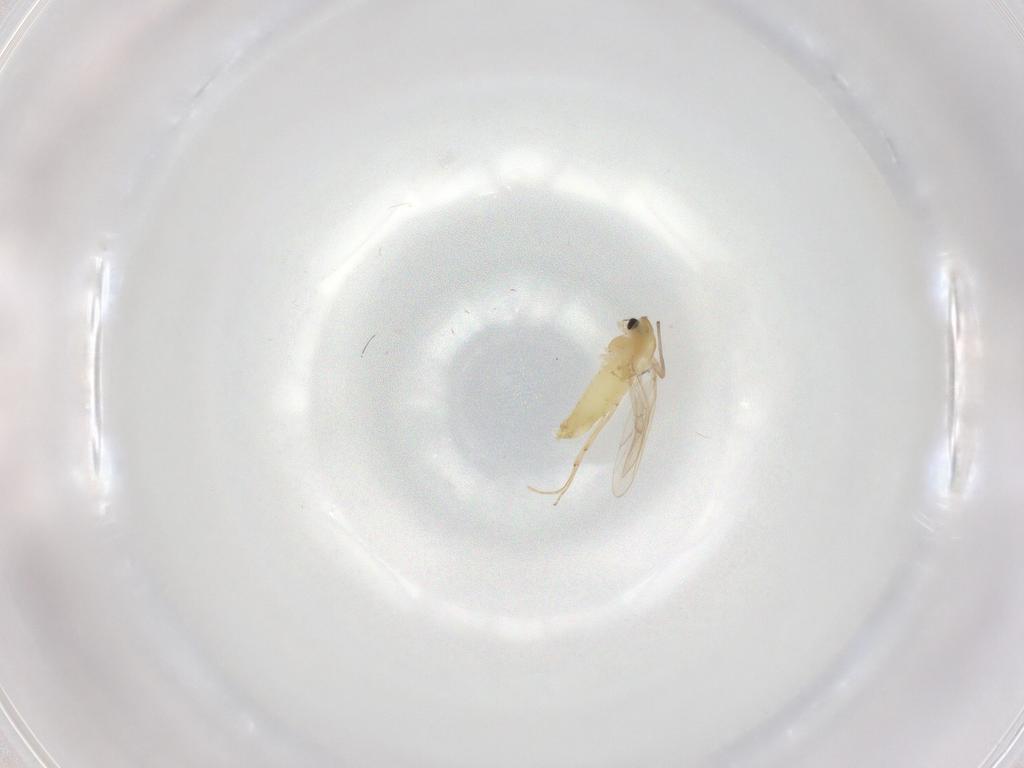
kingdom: Animalia
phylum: Arthropoda
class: Insecta
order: Diptera
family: Chironomidae
